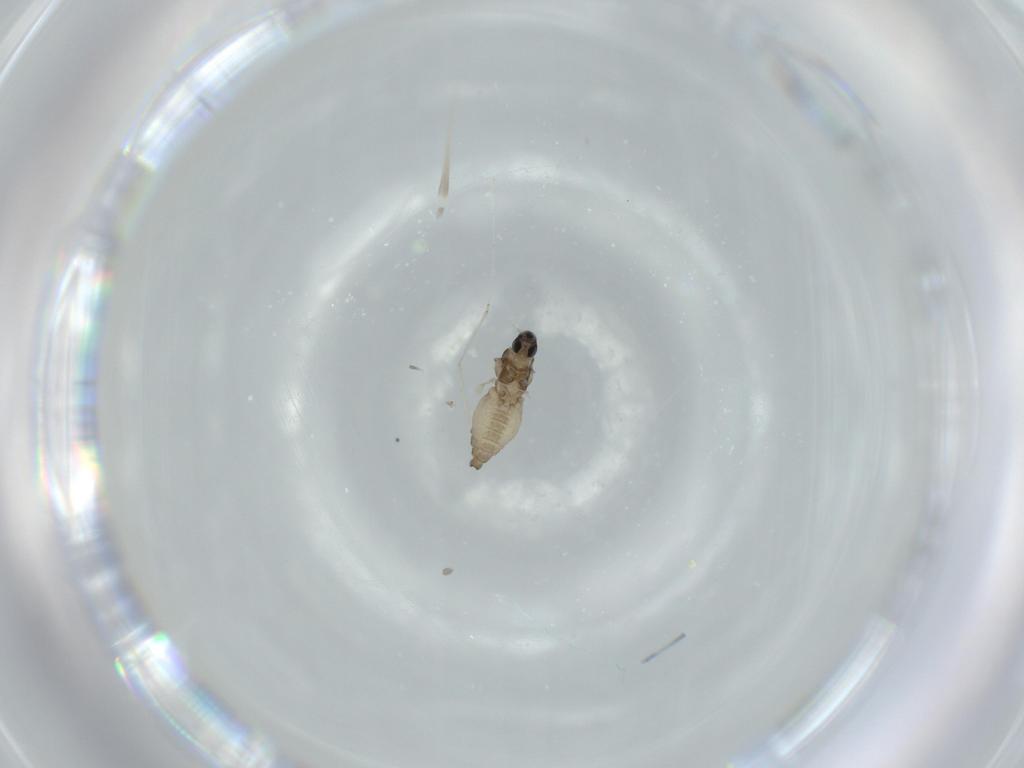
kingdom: Animalia
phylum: Arthropoda
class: Insecta
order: Diptera
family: Cecidomyiidae
